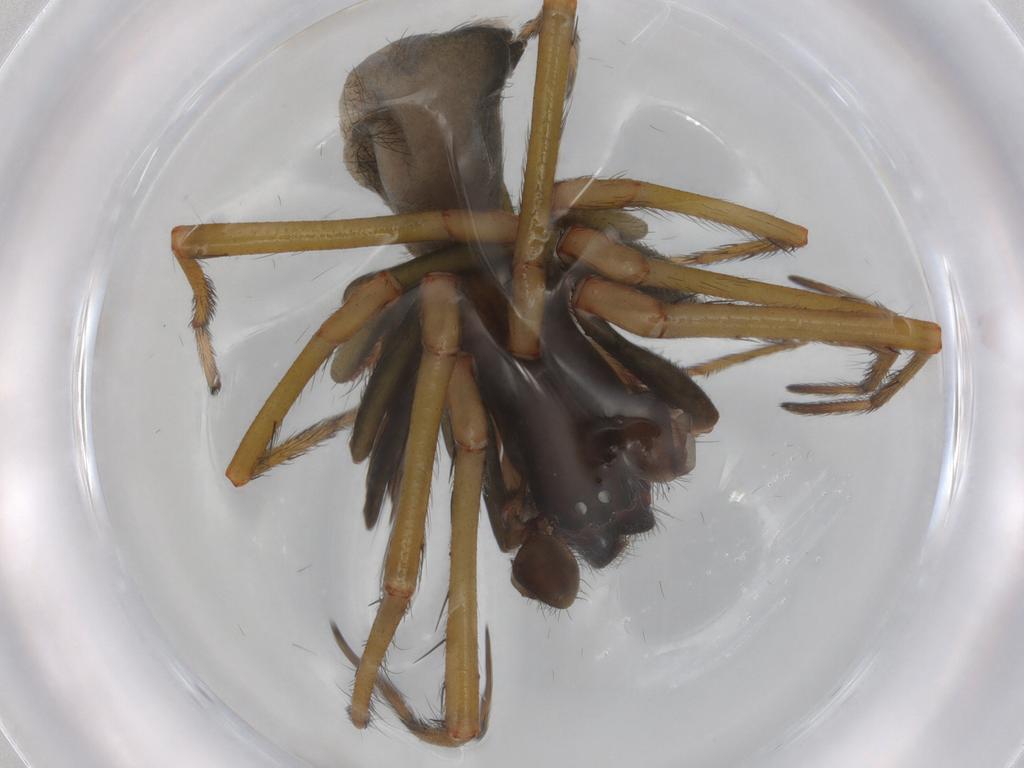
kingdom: Animalia
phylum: Arthropoda
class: Arachnida
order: Araneae
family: Titanoecidae
